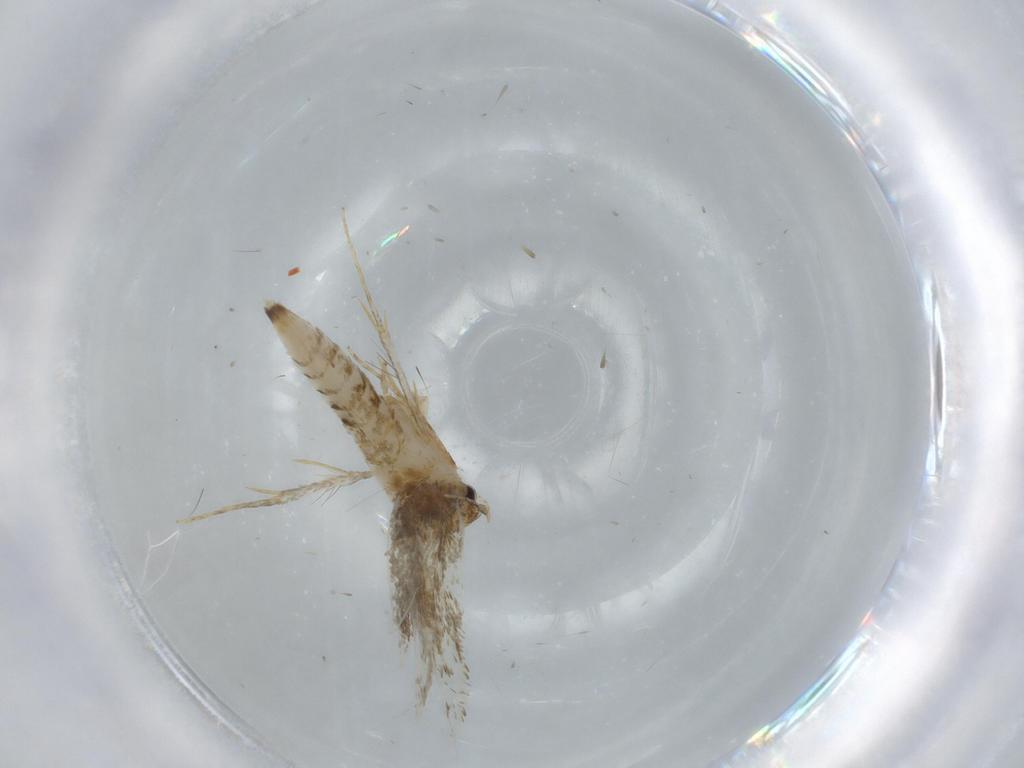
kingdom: Animalia
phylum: Arthropoda
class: Insecta
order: Lepidoptera
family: Tineidae
